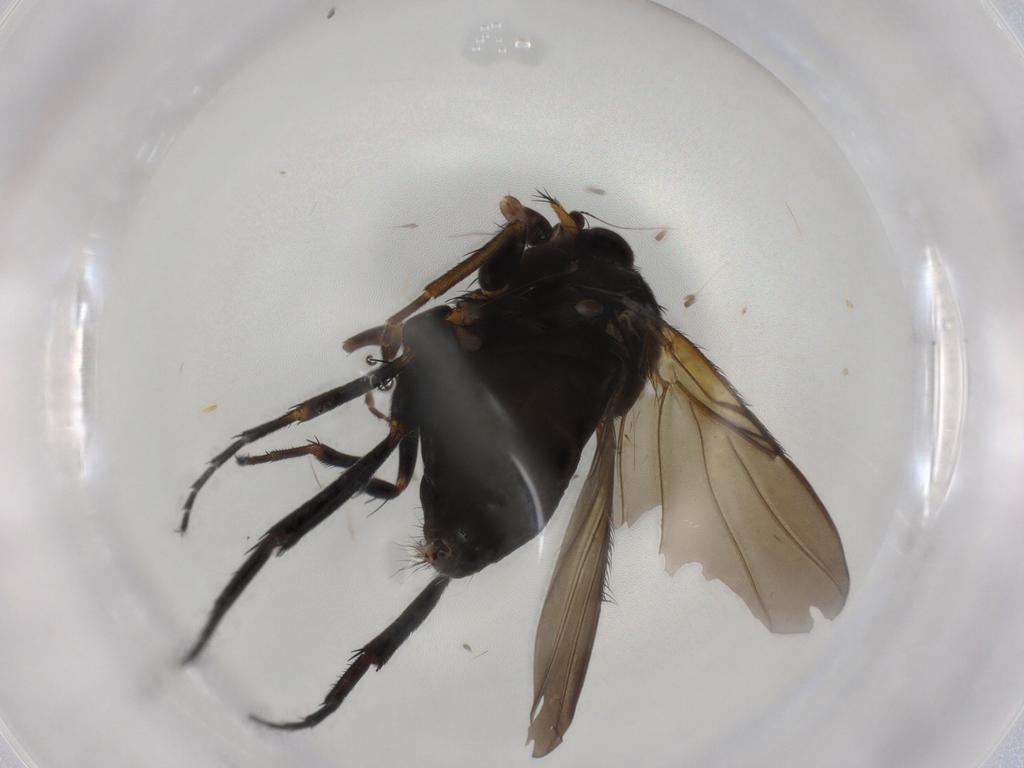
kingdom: Animalia
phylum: Arthropoda
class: Insecta
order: Diptera
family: Phoridae
